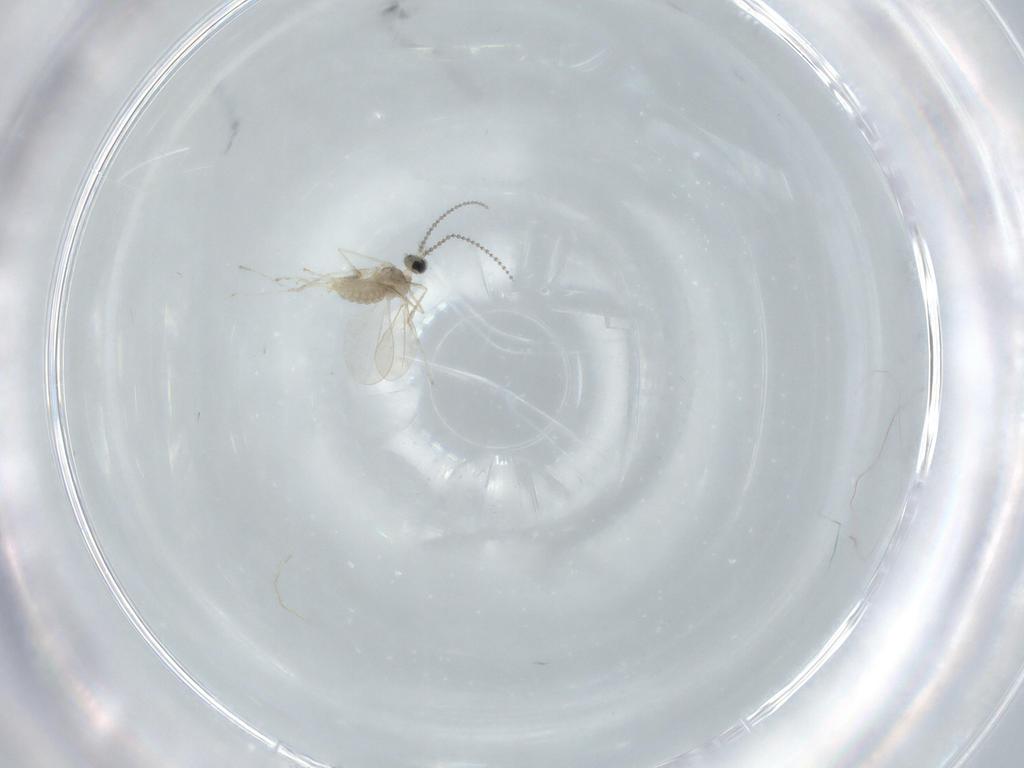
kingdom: Animalia
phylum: Arthropoda
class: Insecta
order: Diptera
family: Cecidomyiidae
